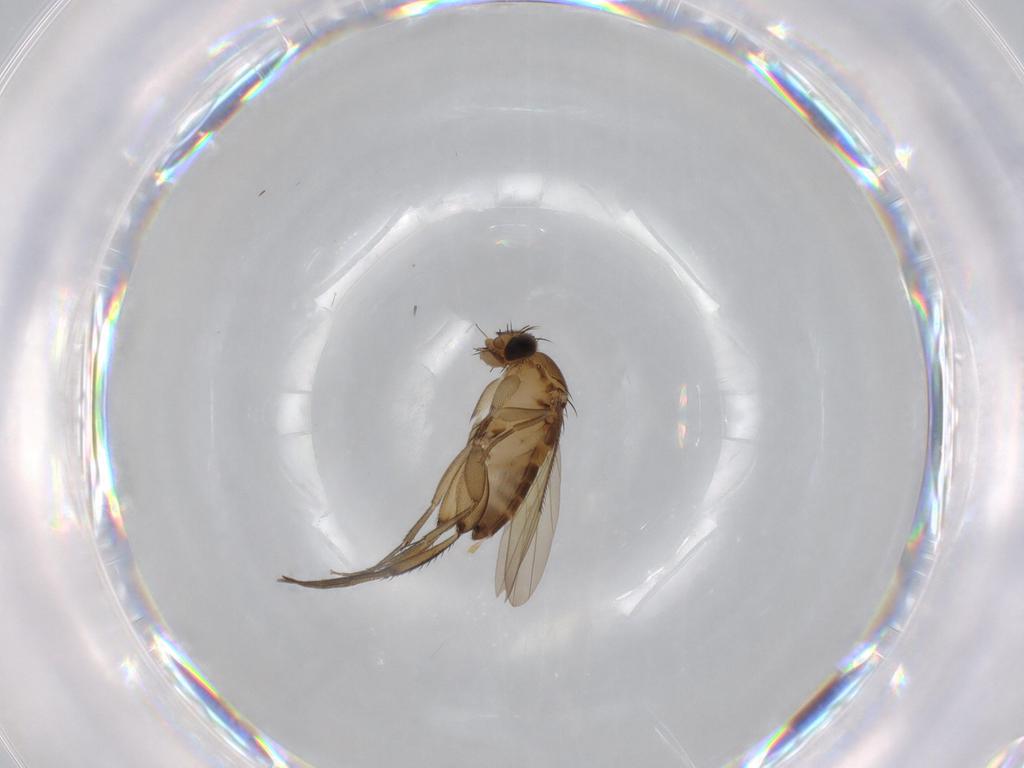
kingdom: Animalia
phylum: Arthropoda
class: Insecta
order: Diptera
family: Phoridae
